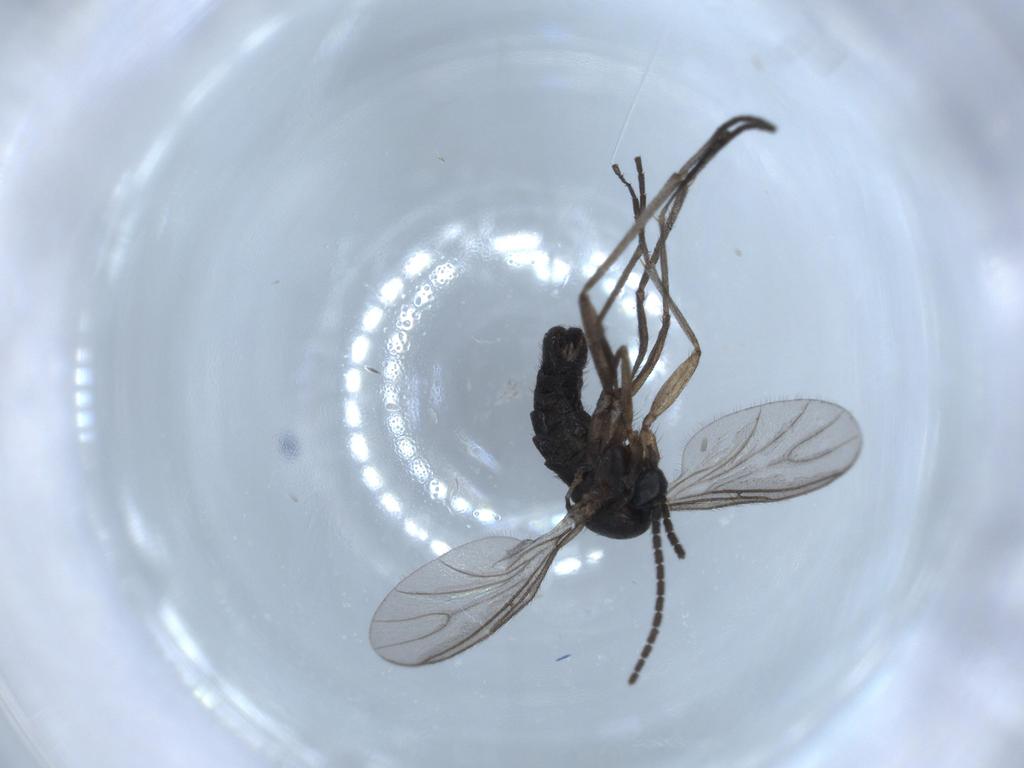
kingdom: Animalia
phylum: Arthropoda
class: Insecta
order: Diptera
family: Sciaridae
